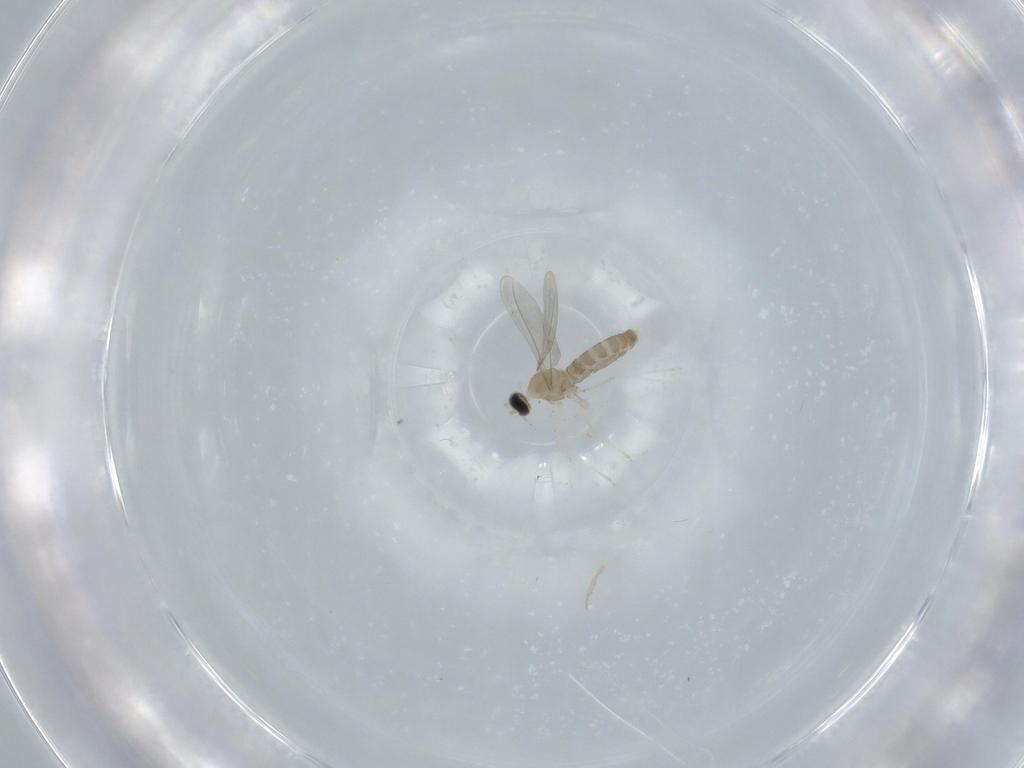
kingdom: Animalia
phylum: Arthropoda
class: Insecta
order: Diptera
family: Cecidomyiidae
